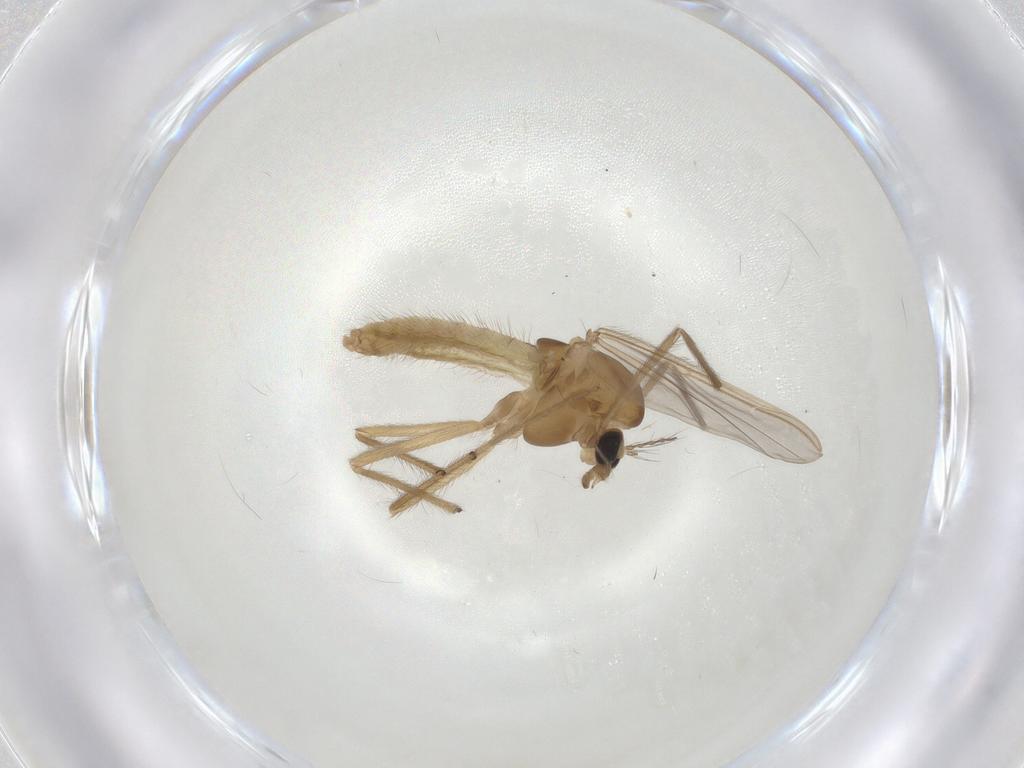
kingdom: Animalia
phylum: Arthropoda
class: Insecta
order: Diptera
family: Chironomidae
